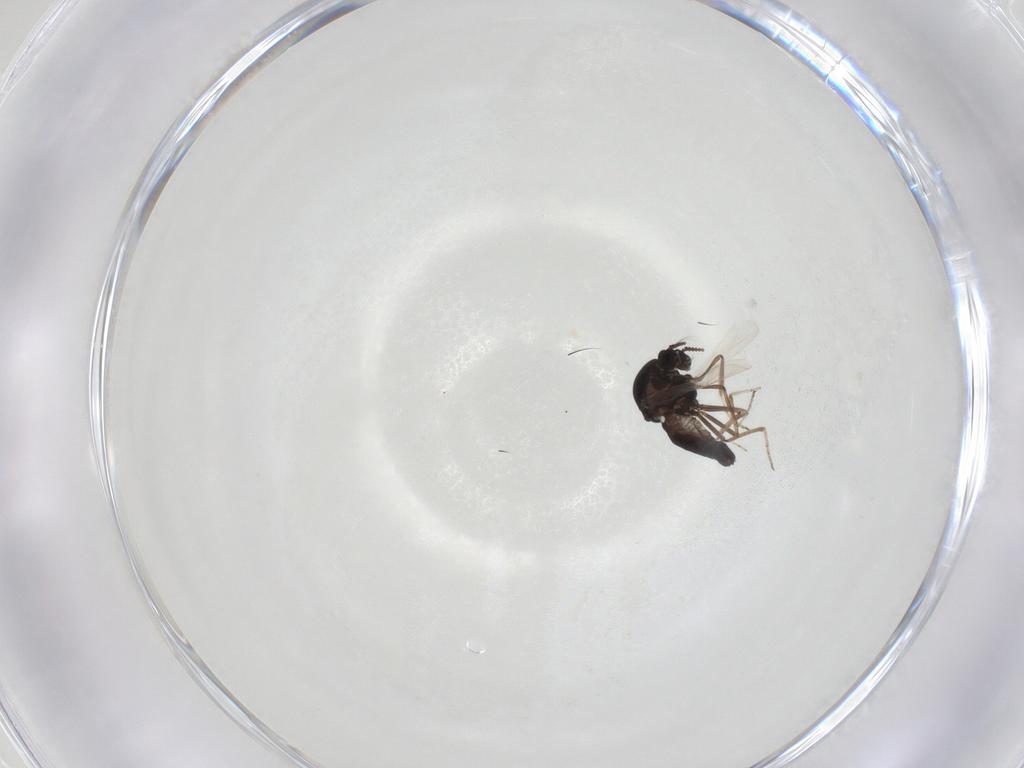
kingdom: Animalia
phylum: Arthropoda
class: Insecta
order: Diptera
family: Ceratopogonidae
